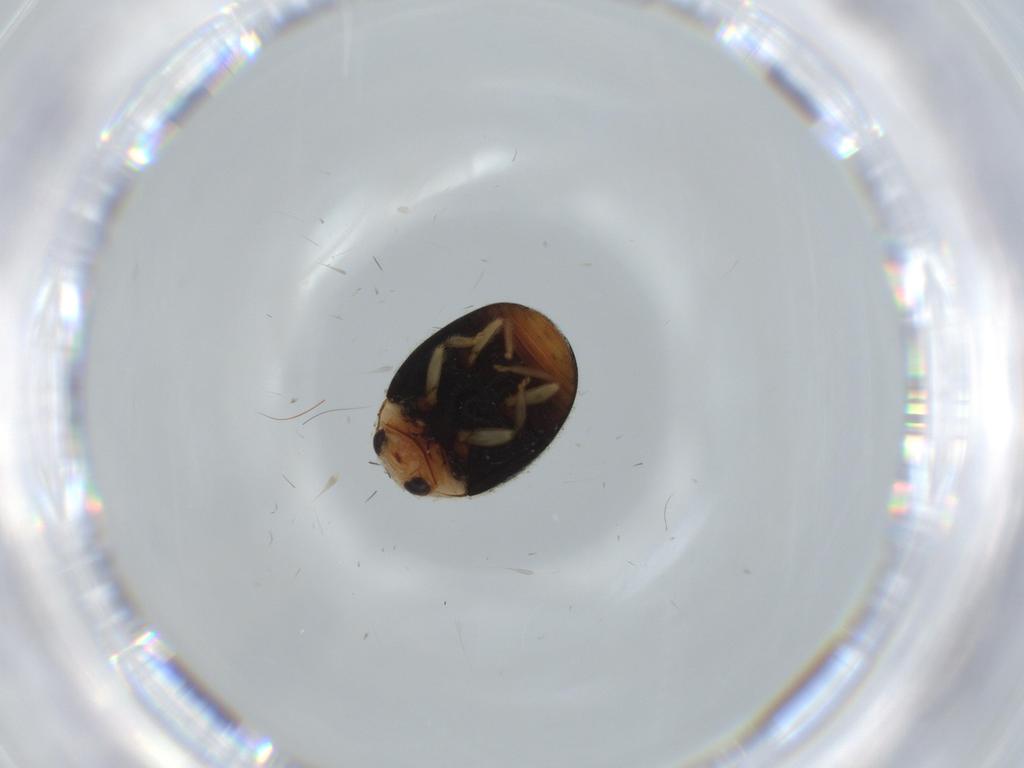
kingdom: Animalia
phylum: Arthropoda
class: Insecta
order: Coleoptera
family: Coccinellidae
